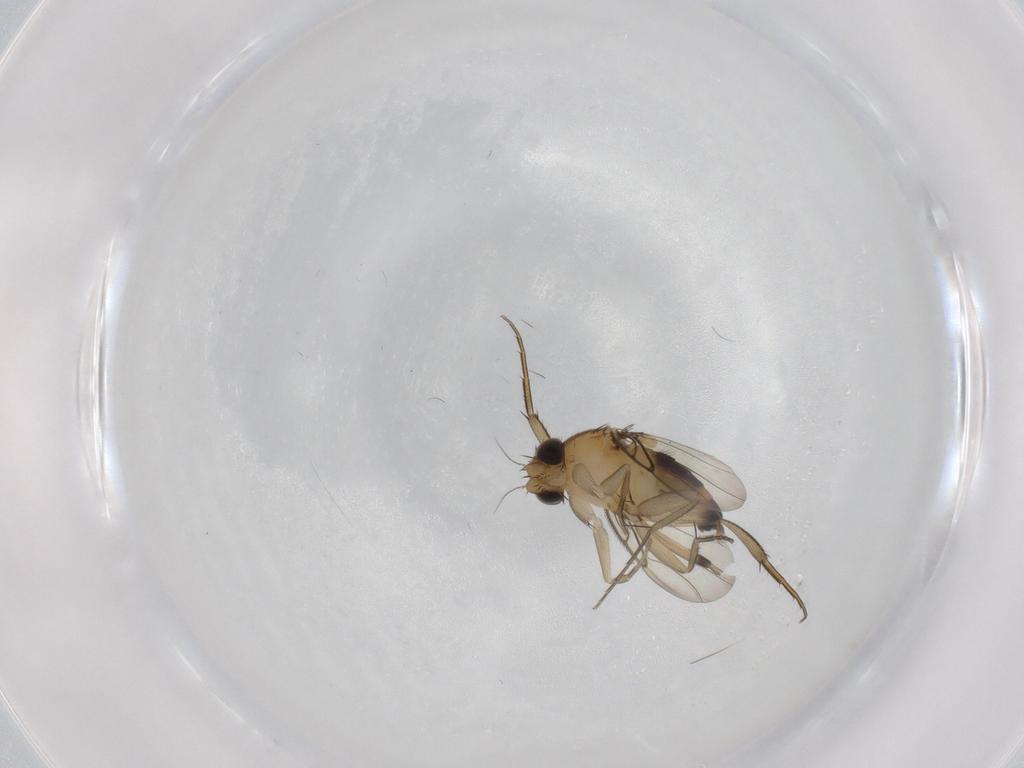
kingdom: Animalia
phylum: Arthropoda
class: Insecta
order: Diptera
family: Phoridae
